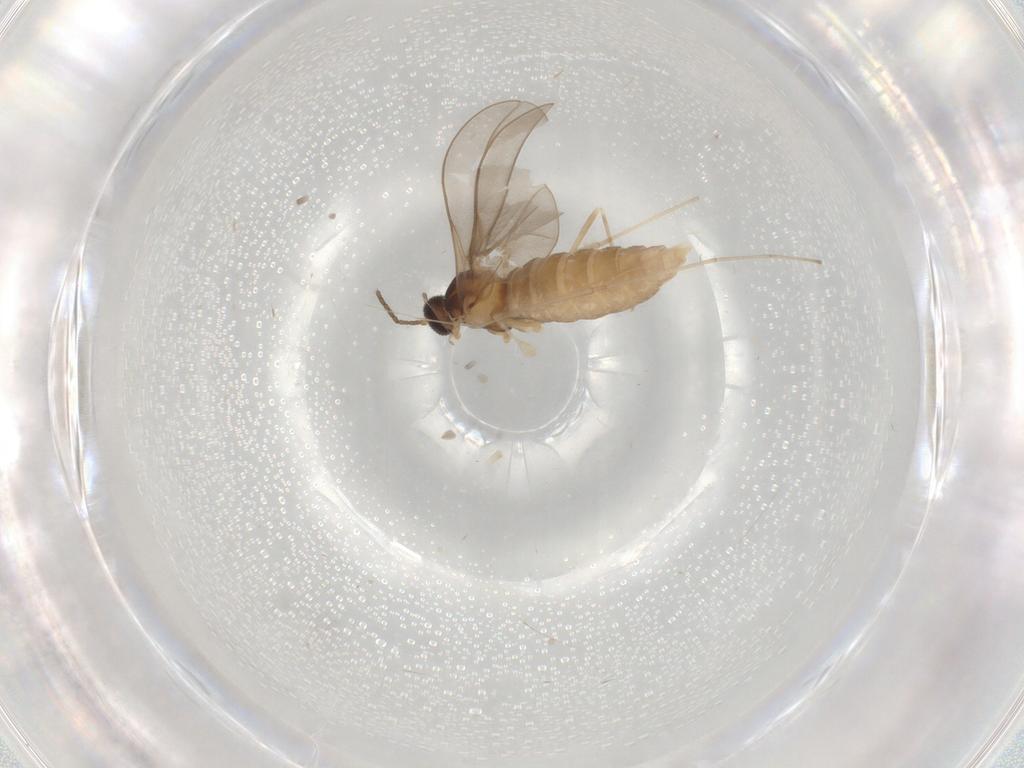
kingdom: Animalia
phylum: Arthropoda
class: Insecta
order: Diptera
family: Cecidomyiidae
